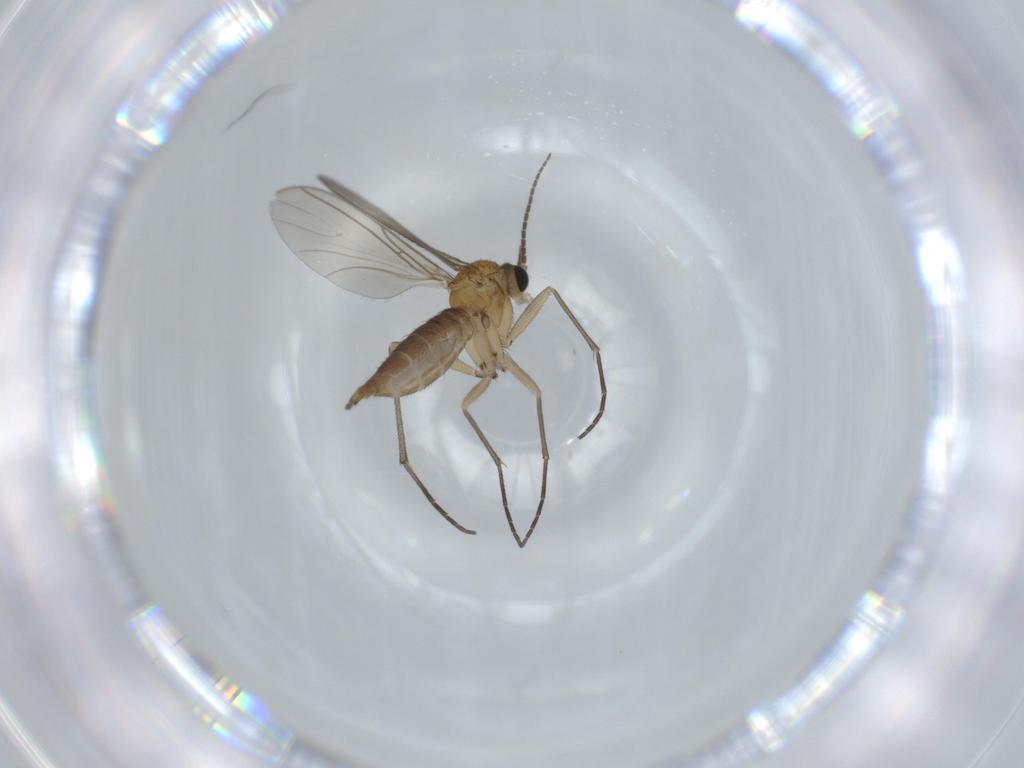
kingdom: Animalia
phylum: Arthropoda
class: Insecta
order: Diptera
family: Sciaridae
